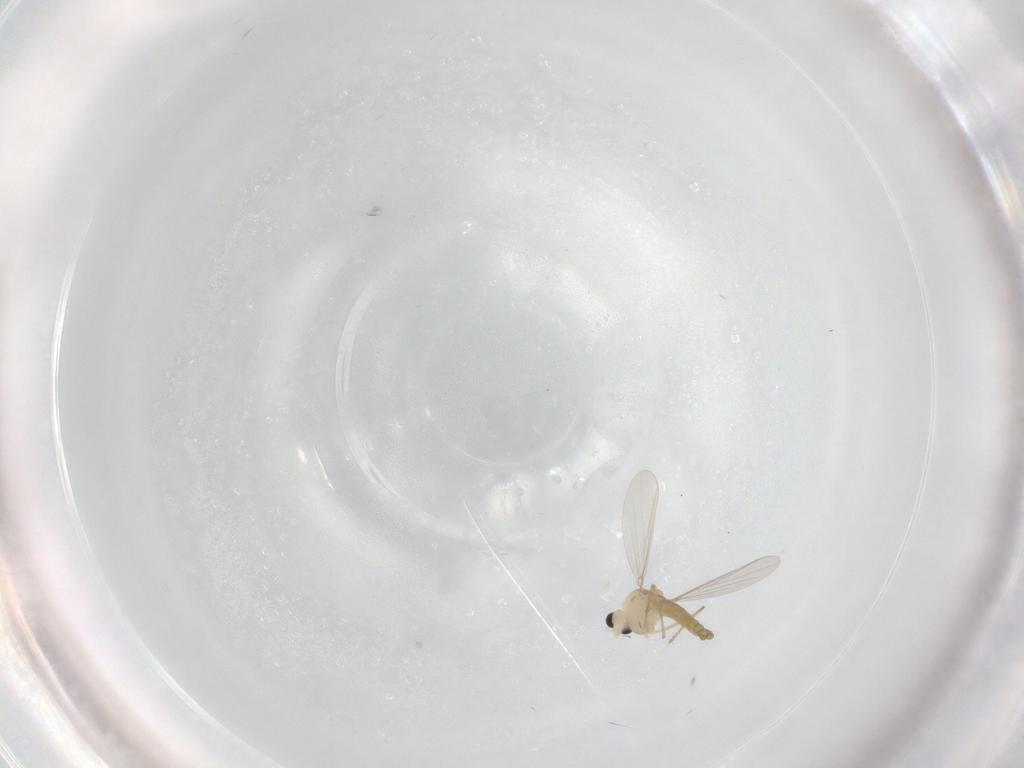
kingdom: Animalia
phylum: Arthropoda
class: Insecta
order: Diptera
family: Chironomidae
